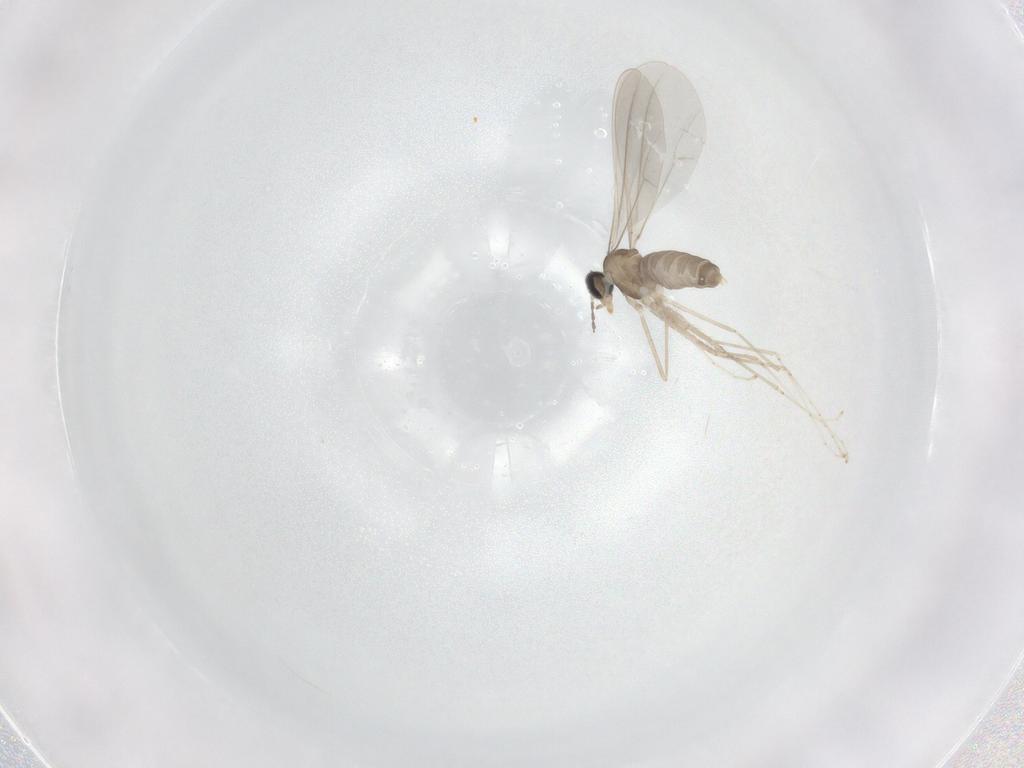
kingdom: Animalia
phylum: Arthropoda
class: Insecta
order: Diptera
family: Cecidomyiidae
